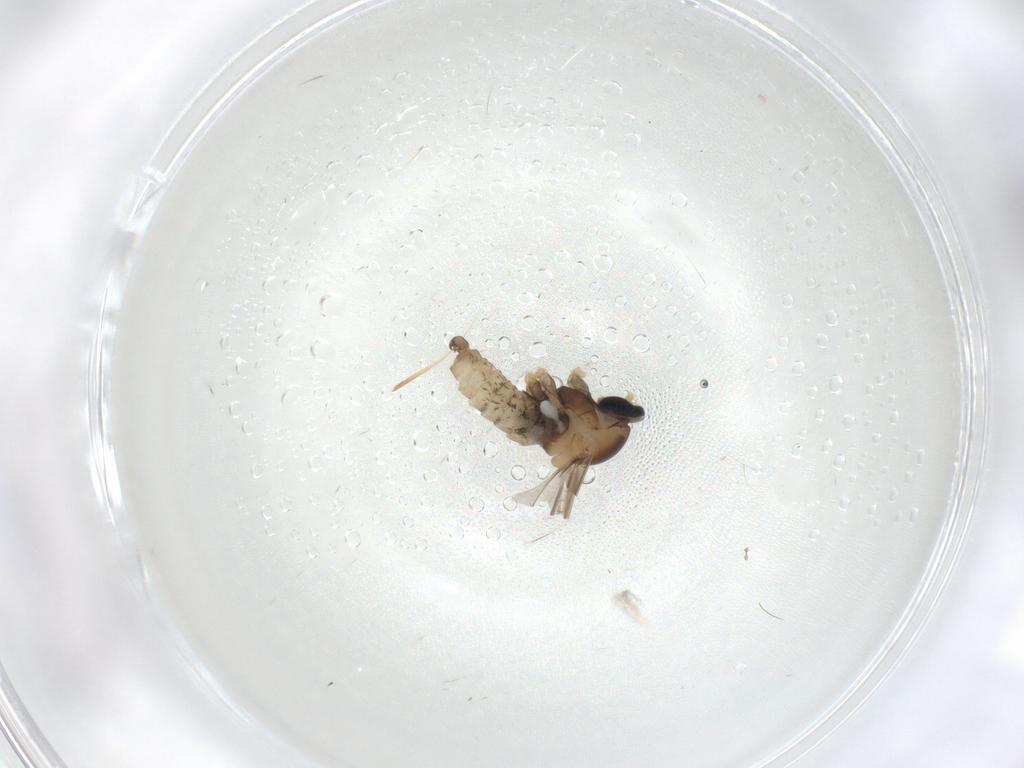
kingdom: Animalia
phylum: Arthropoda
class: Insecta
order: Diptera
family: Cecidomyiidae
